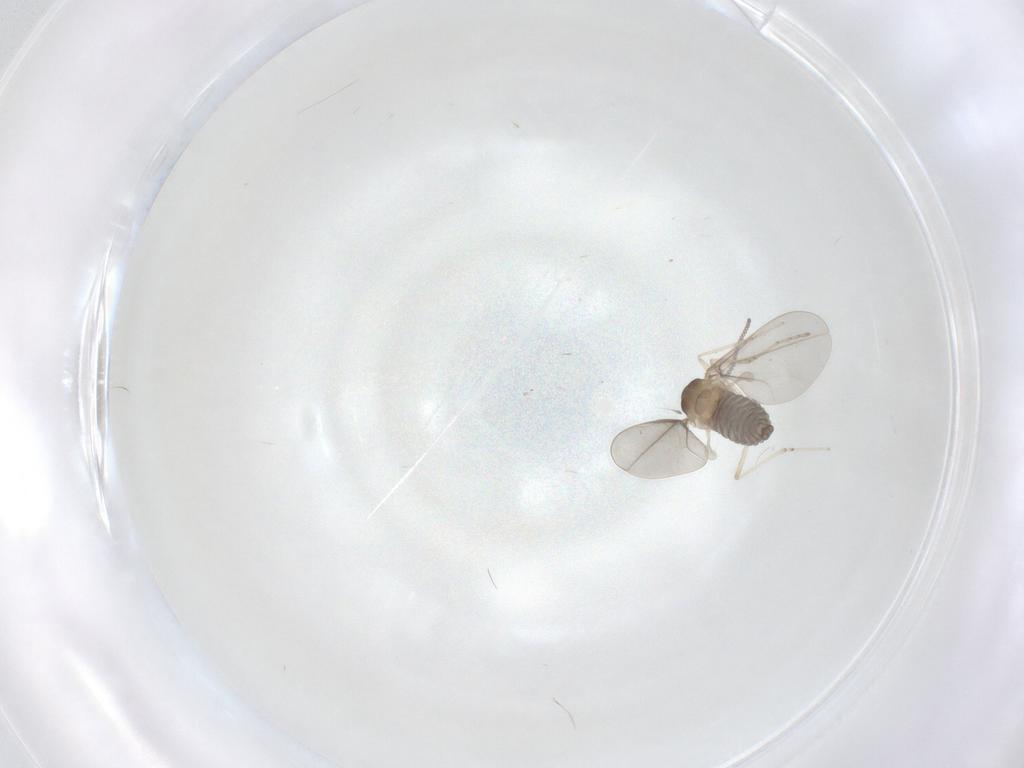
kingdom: Animalia
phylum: Arthropoda
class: Insecta
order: Diptera
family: Cecidomyiidae
